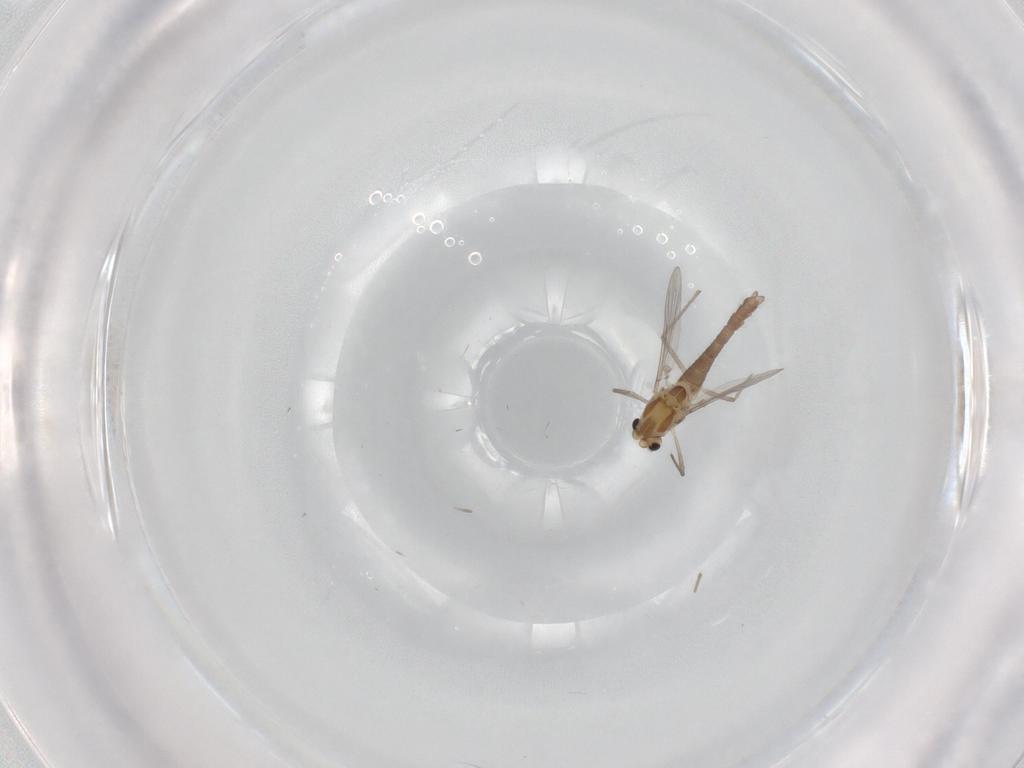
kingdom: Animalia
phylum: Arthropoda
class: Insecta
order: Diptera
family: Chironomidae
